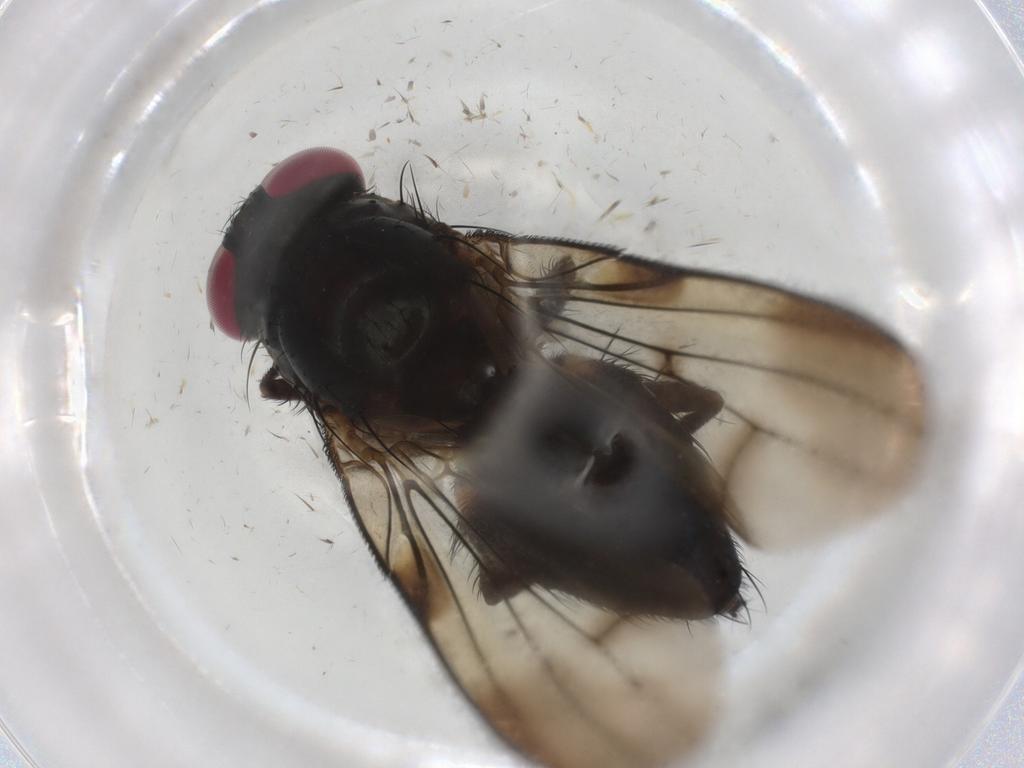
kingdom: Animalia
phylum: Arthropoda
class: Insecta
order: Diptera
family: Fannia
